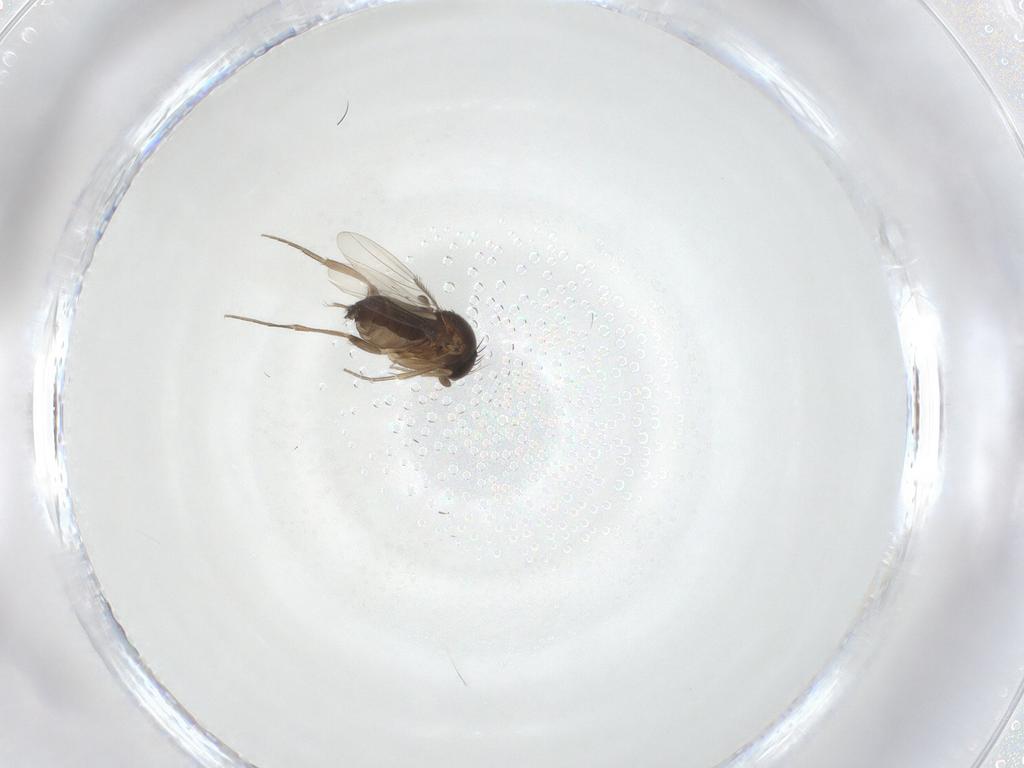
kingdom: Animalia
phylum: Arthropoda
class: Insecta
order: Diptera
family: Phoridae
